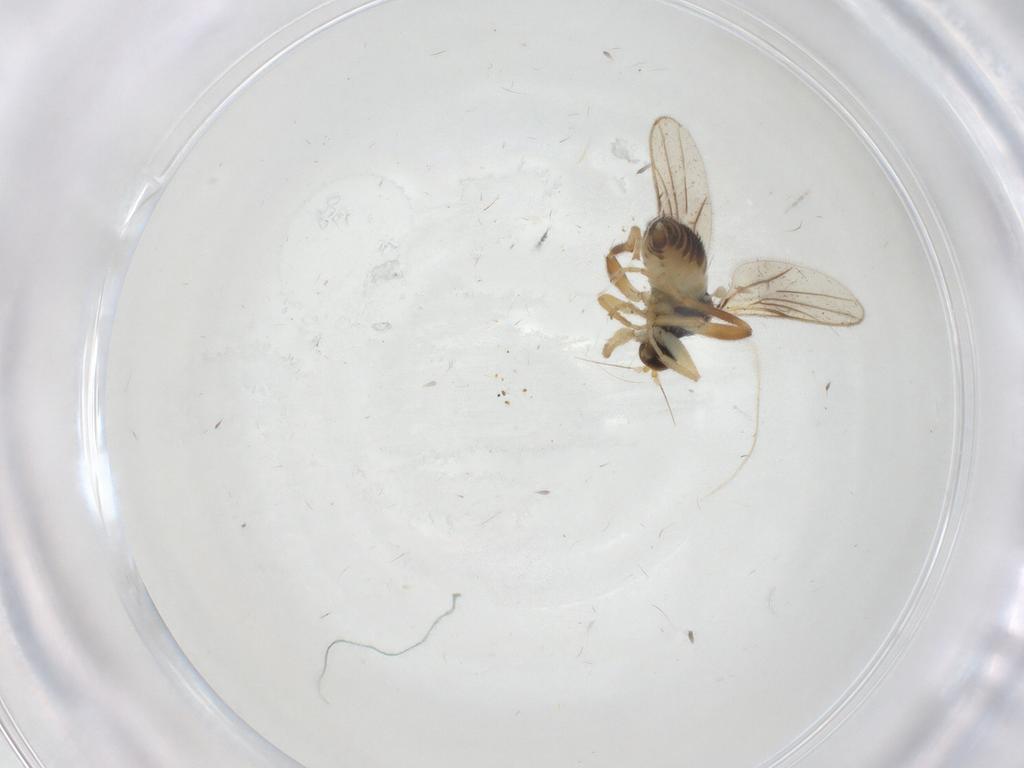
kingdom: Animalia
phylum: Arthropoda
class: Insecta
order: Diptera
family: Hybotidae
